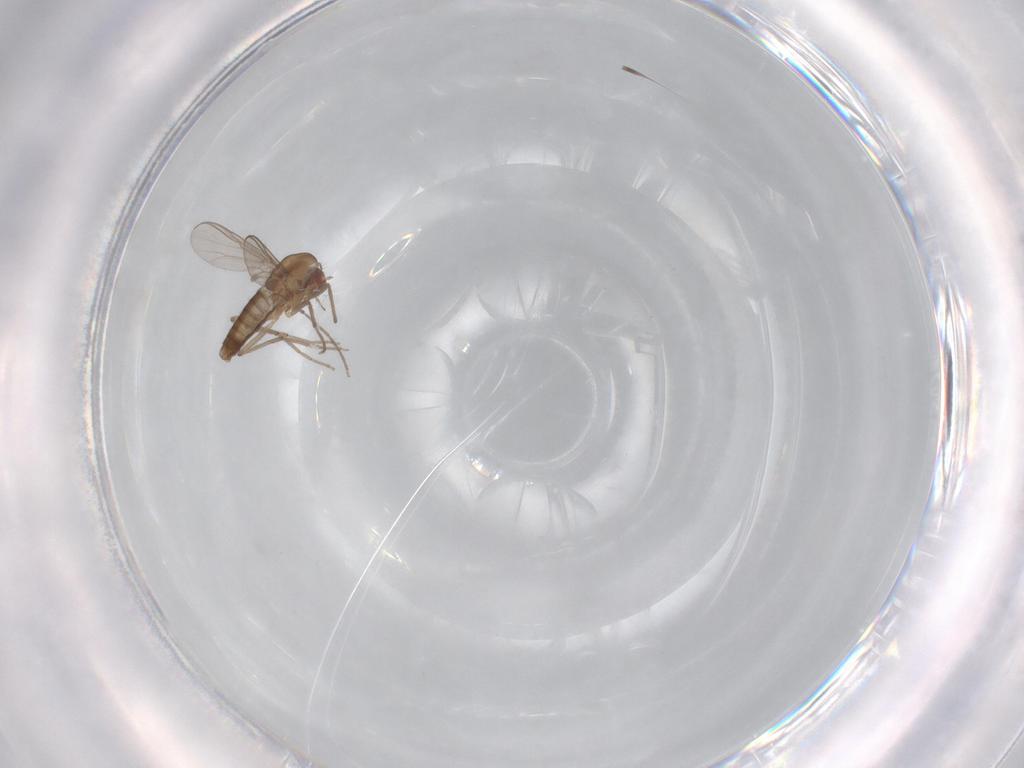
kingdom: Animalia
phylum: Arthropoda
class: Insecta
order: Diptera
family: Chironomidae
